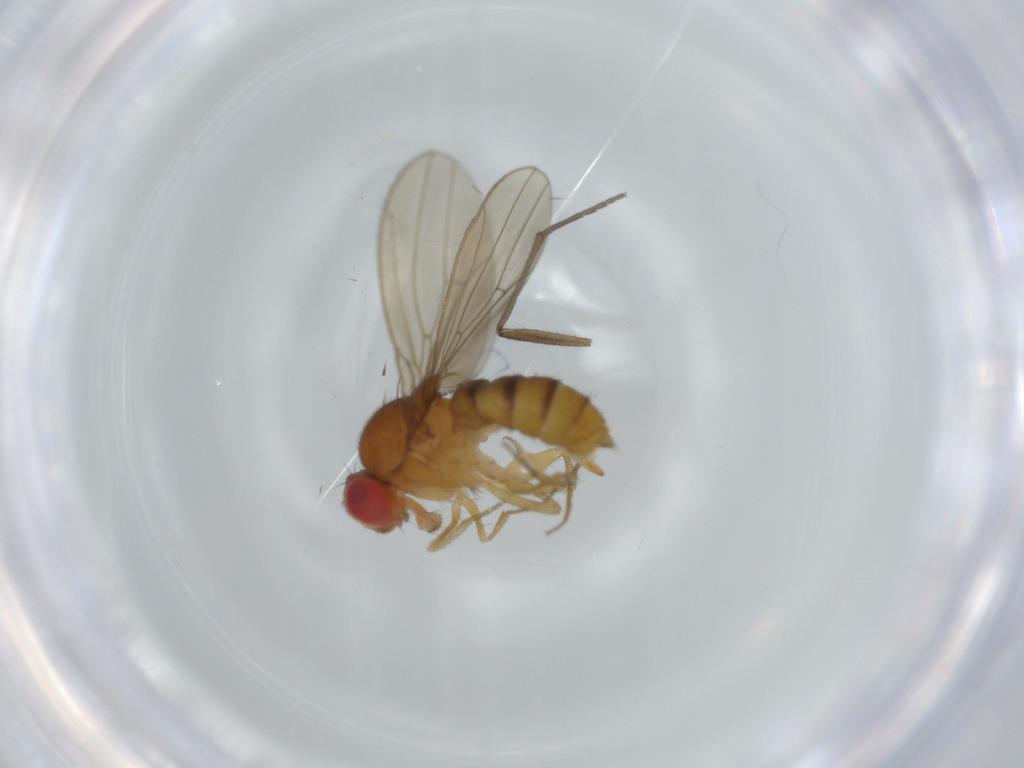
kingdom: Animalia
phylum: Arthropoda
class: Insecta
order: Diptera
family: Drosophilidae
